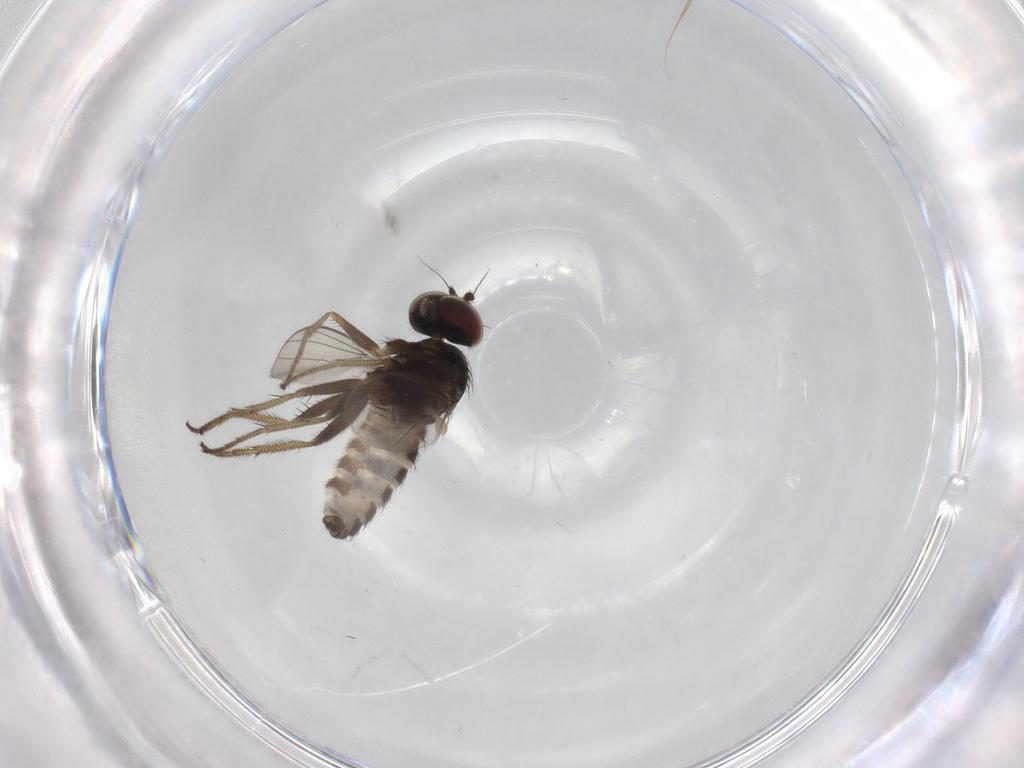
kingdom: Animalia
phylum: Arthropoda
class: Insecta
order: Diptera
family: Cecidomyiidae
